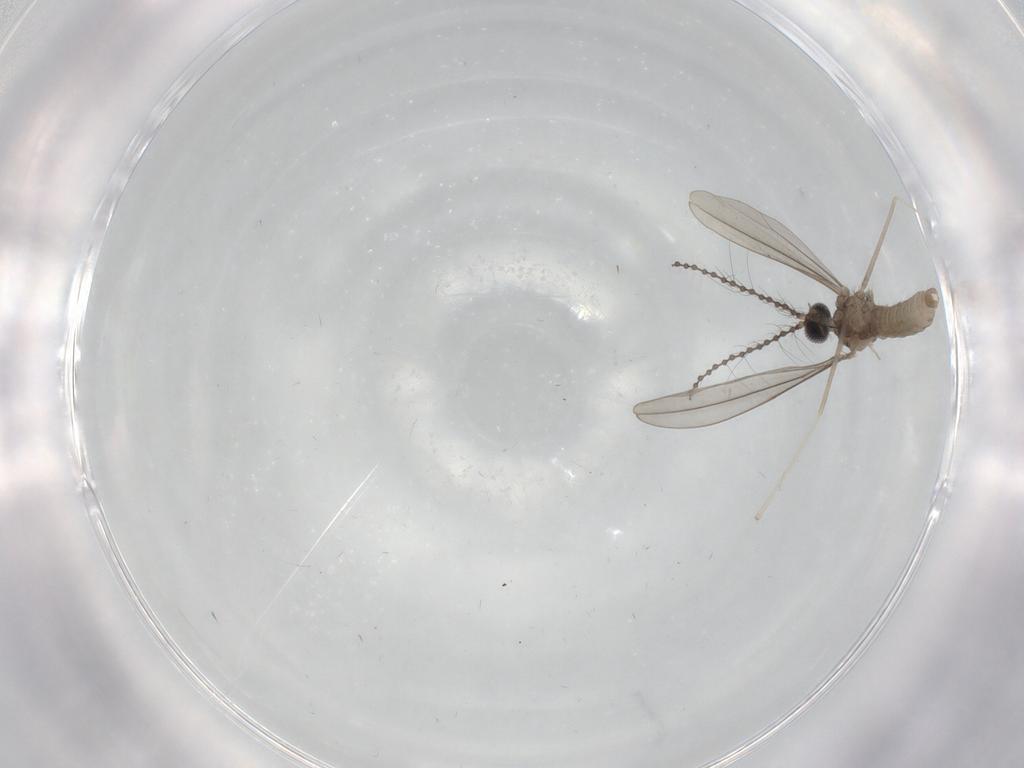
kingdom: Animalia
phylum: Arthropoda
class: Insecta
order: Diptera
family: Cecidomyiidae
